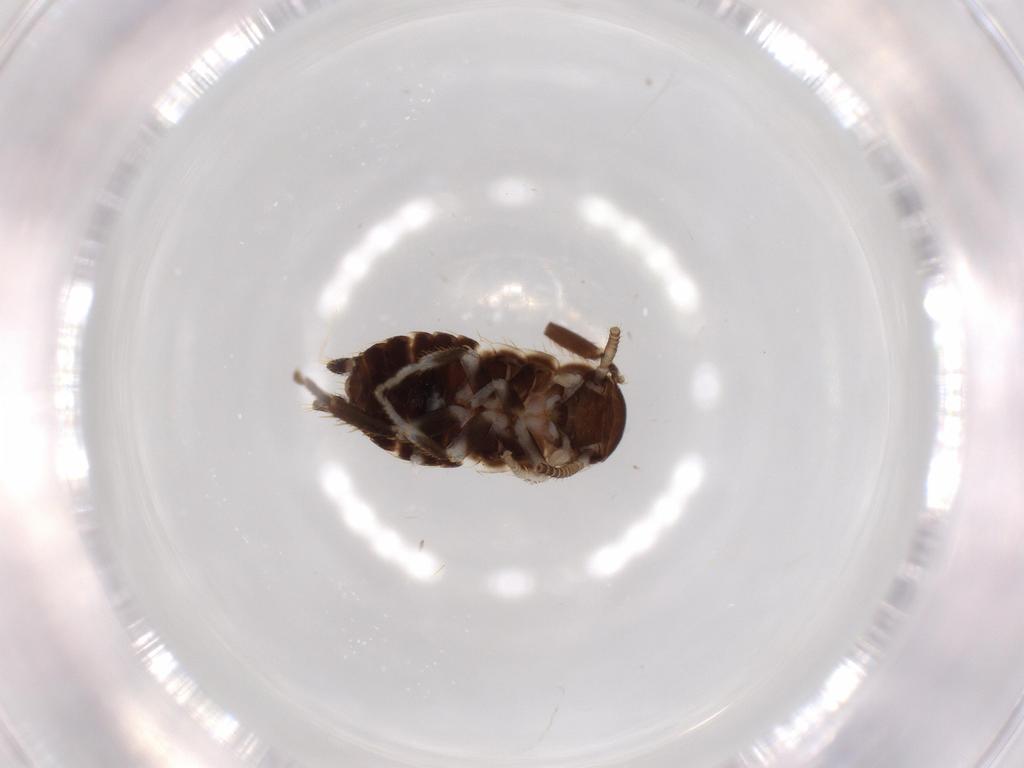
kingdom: Animalia
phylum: Arthropoda
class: Insecta
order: Blattodea
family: Ectobiidae
